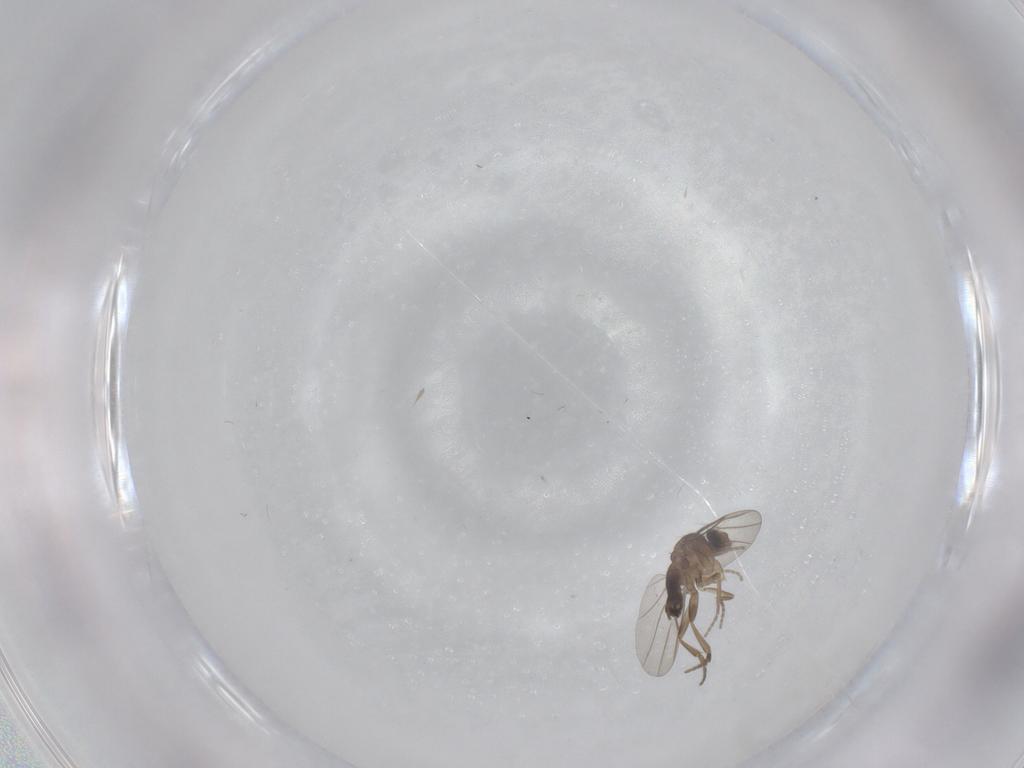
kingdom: Animalia
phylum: Arthropoda
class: Insecta
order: Diptera
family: Phoridae
